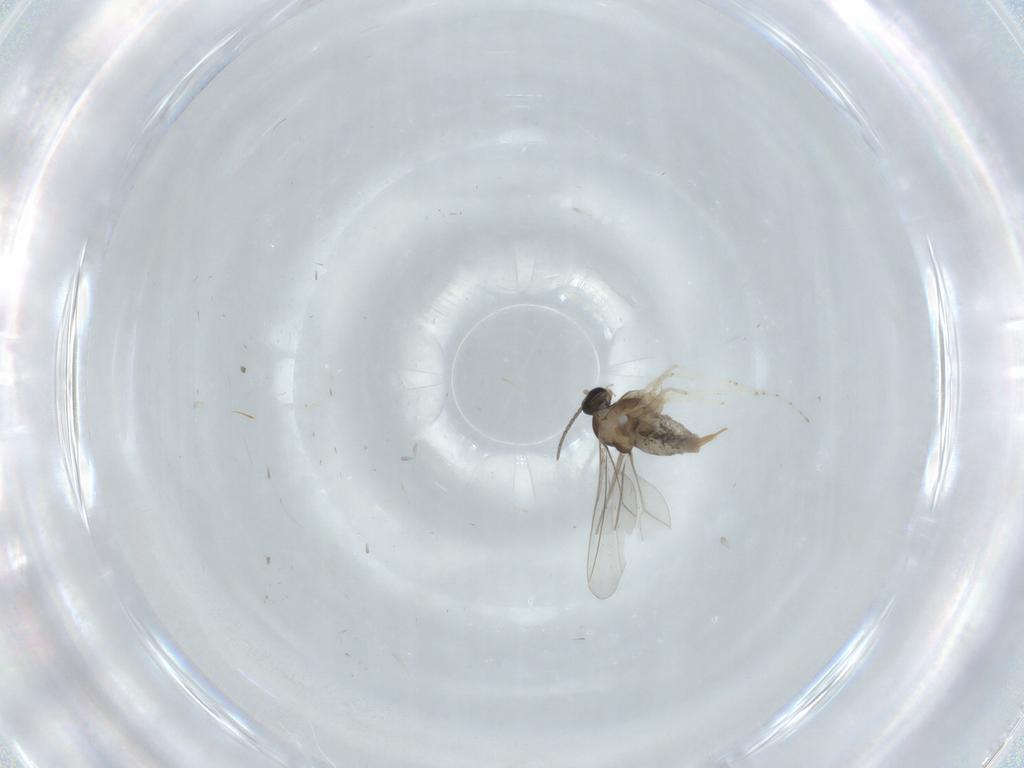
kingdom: Animalia
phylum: Arthropoda
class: Insecta
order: Diptera
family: Cecidomyiidae
